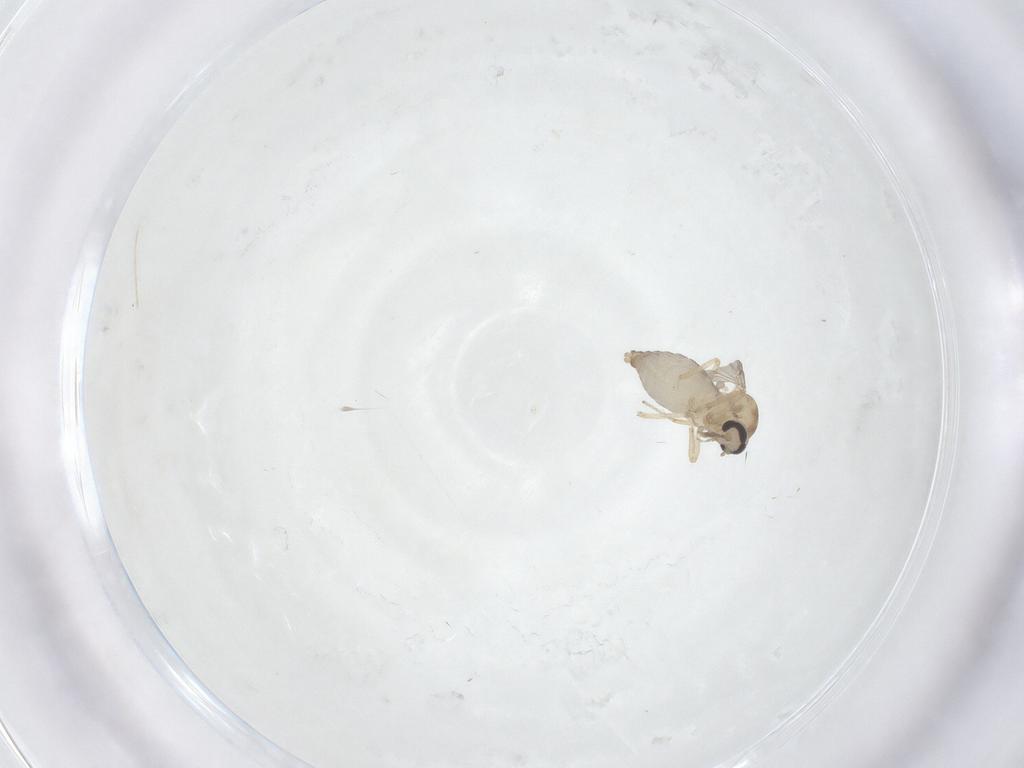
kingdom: Animalia
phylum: Arthropoda
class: Insecta
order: Diptera
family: Ceratopogonidae
